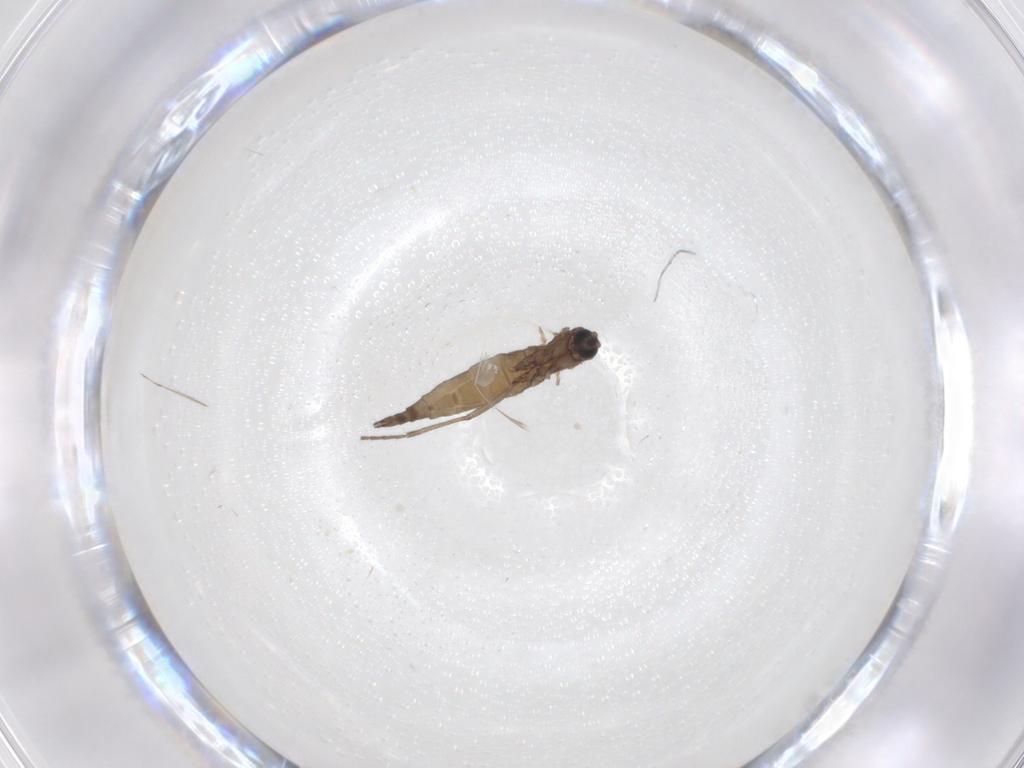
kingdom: Animalia
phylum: Arthropoda
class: Insecta
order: Diptera
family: Sciaridae
